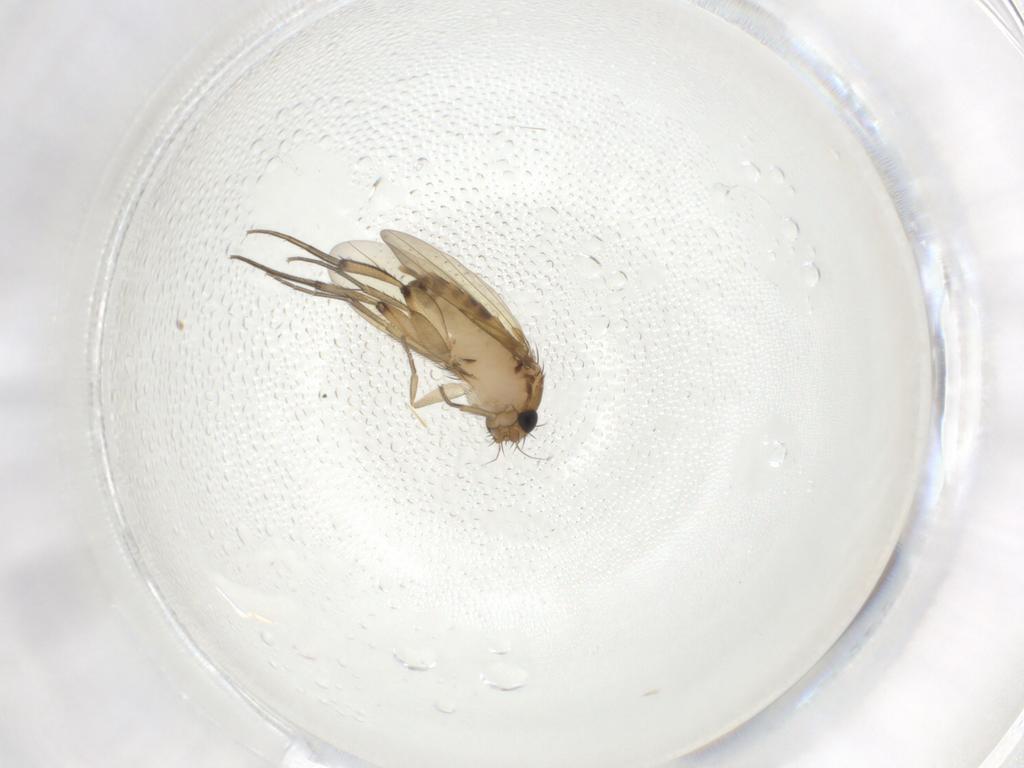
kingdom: Animalia
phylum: Arthropoda
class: Insecta
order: Diptera
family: Phoridae
